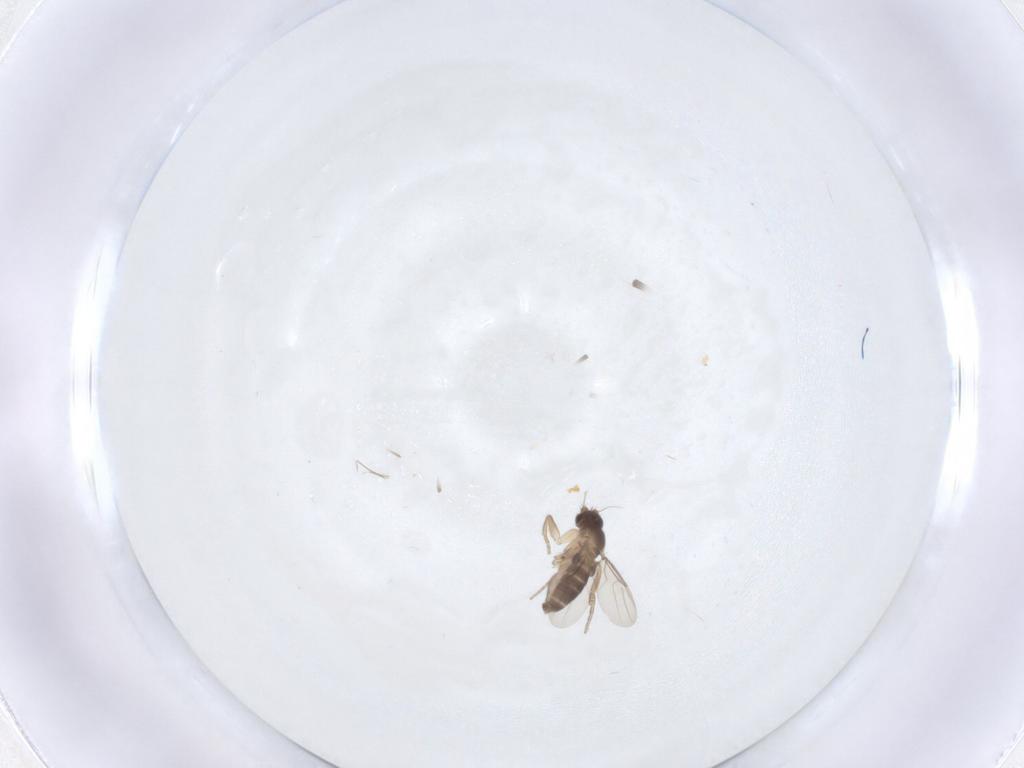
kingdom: Animalia
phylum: Arthropoda
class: Insecta
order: Diptera
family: Phoridae
